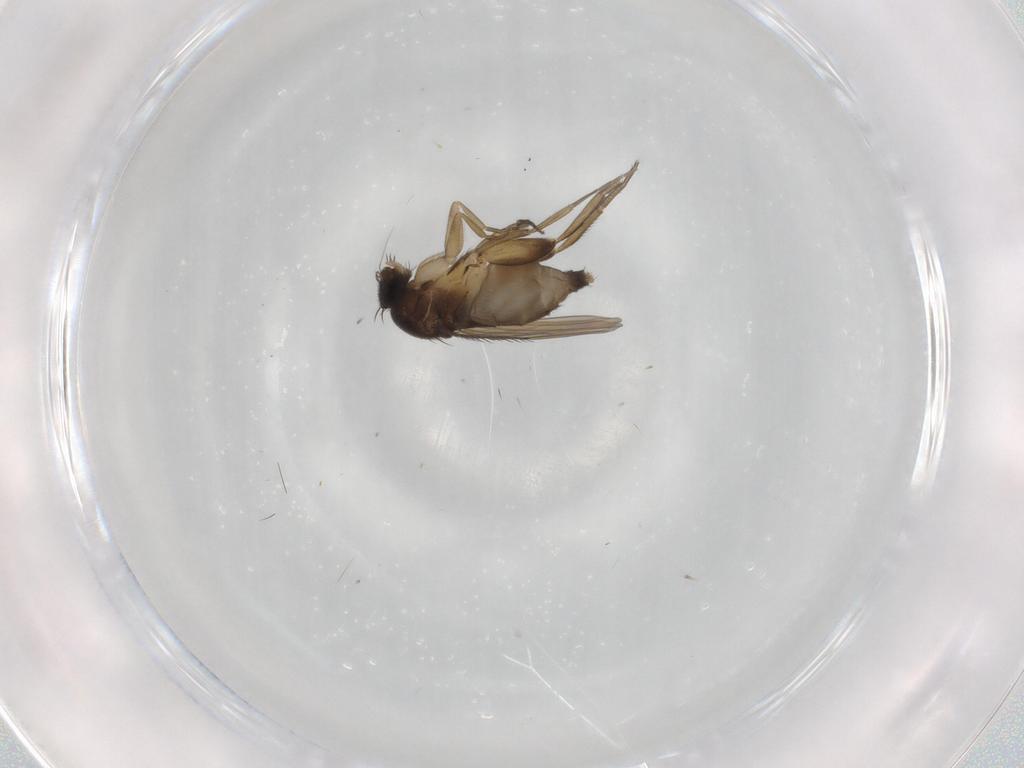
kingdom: Animalia
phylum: Arthropoda
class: Insecta
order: Diptera
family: Phoridae
